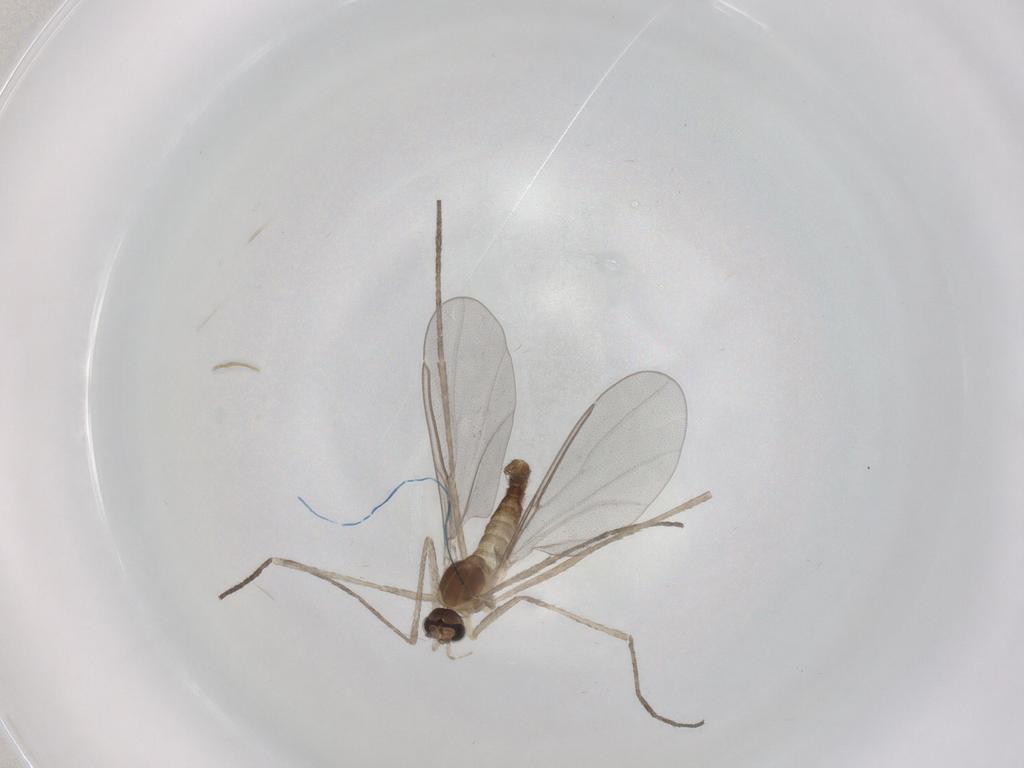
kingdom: Animalia
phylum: Arthropoda
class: Insecta
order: Diptera
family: Cecidomyiidae
